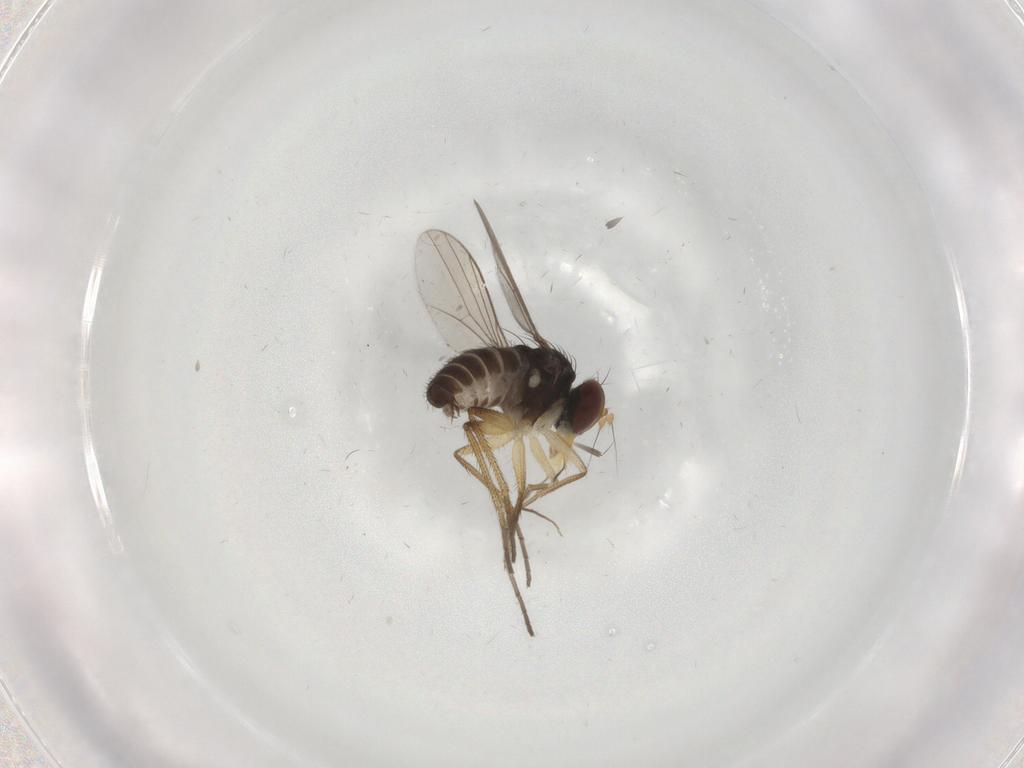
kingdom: Animalia
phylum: Arthropoda
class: Insecta
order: Diptera
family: Dolichopodidae
